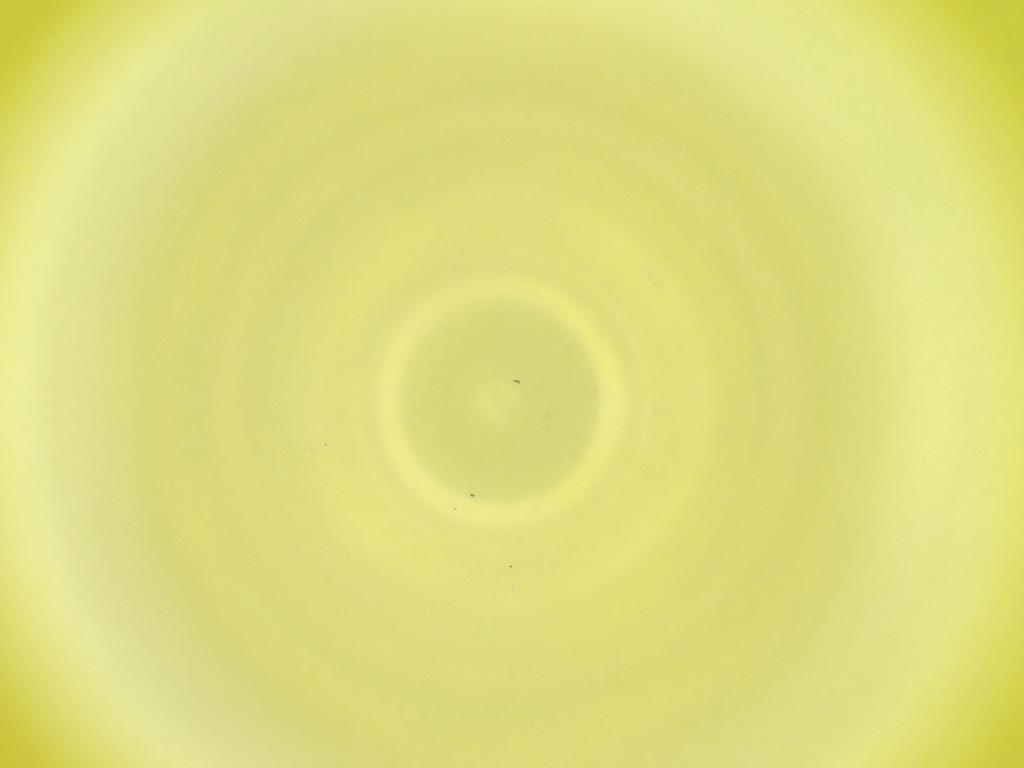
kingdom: Animalia
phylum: Arthropoda
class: Insecta
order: Diptera
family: Cecidomyiidae
